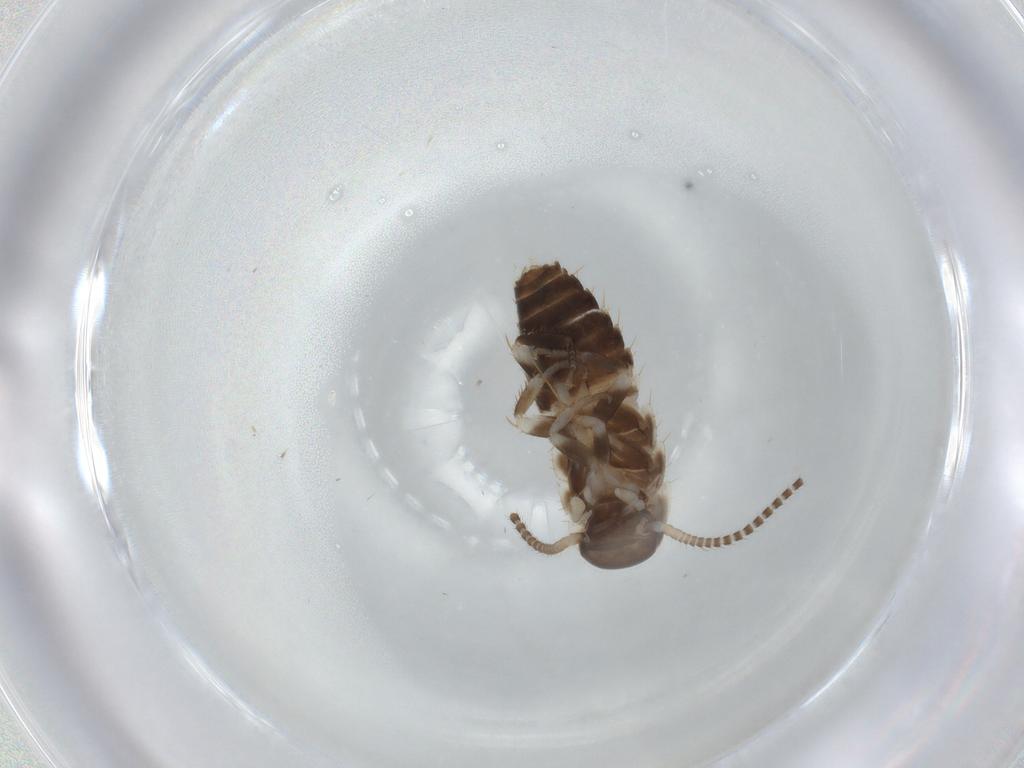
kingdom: Animalia
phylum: Arthropoda
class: Insecta
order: Blattodea
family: Ectobiidae
